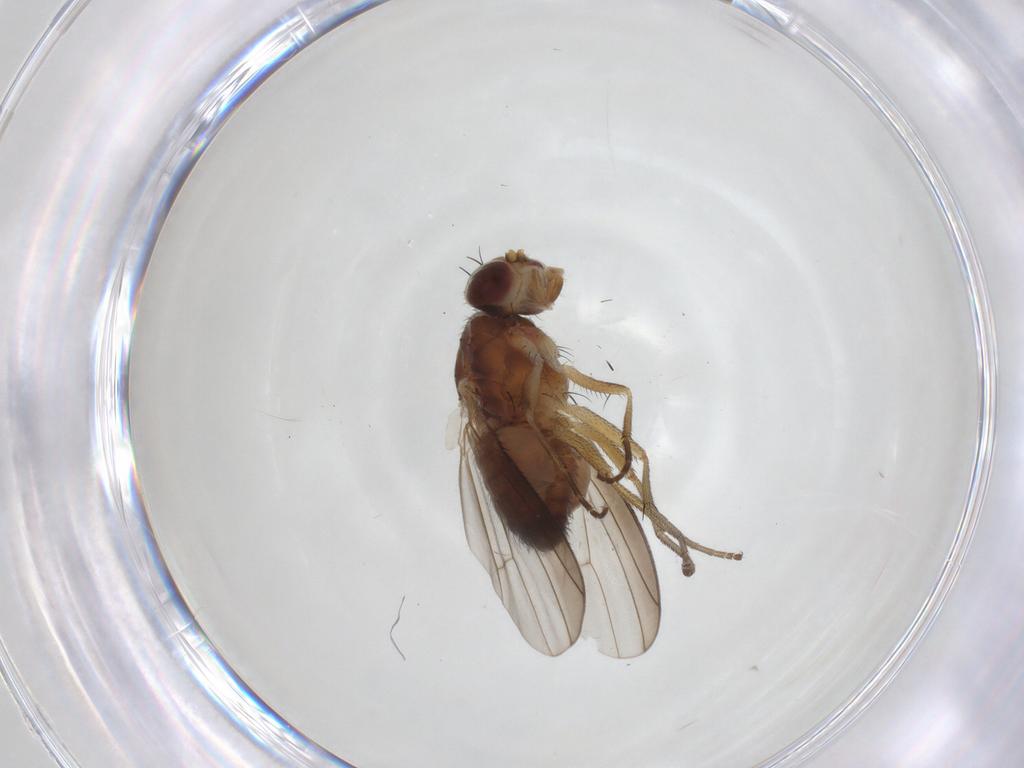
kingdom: Animalia
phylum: Arthropoda
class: Insecta
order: Diptera
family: Heleomyzidae
